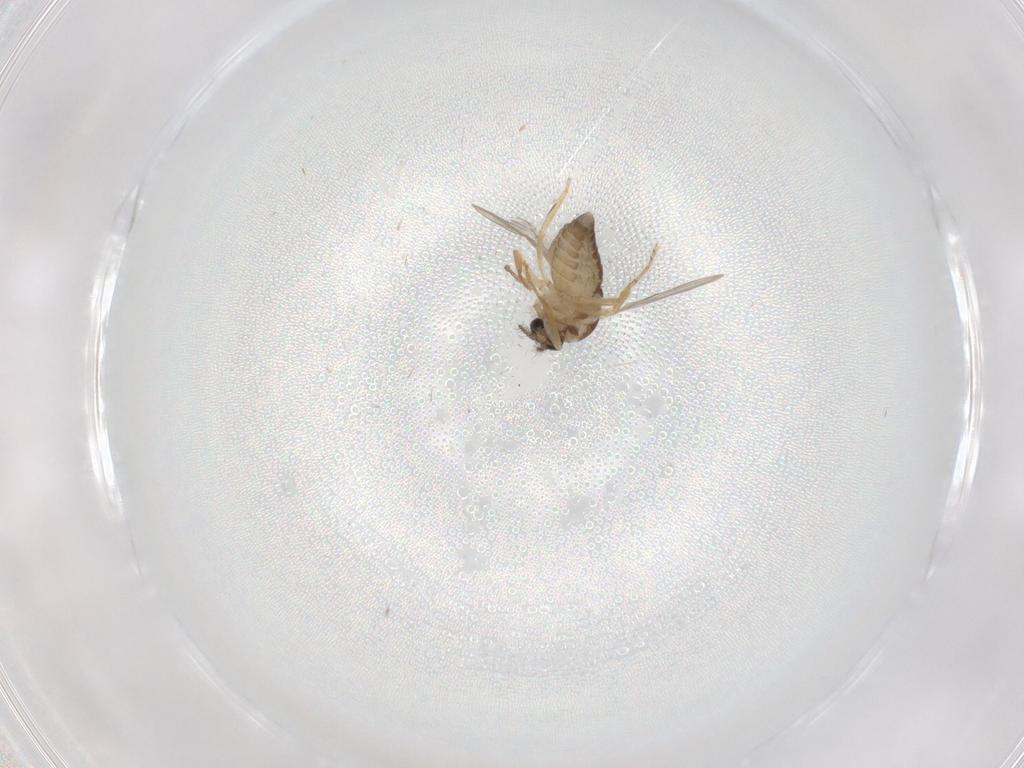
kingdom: Animalia
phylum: Arthropoda
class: Insecta
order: Diptera
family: Ceratopogonidae
